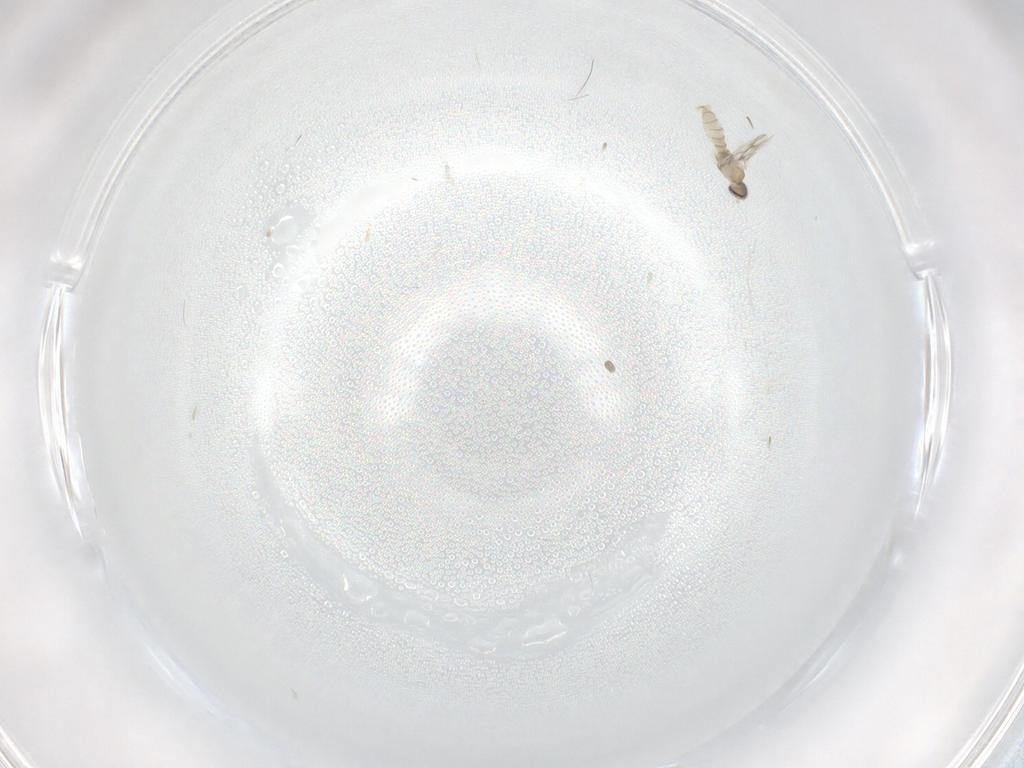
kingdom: Animalia
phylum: Arthropoda
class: Insecta
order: Diptera
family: Cecidomyiidae
